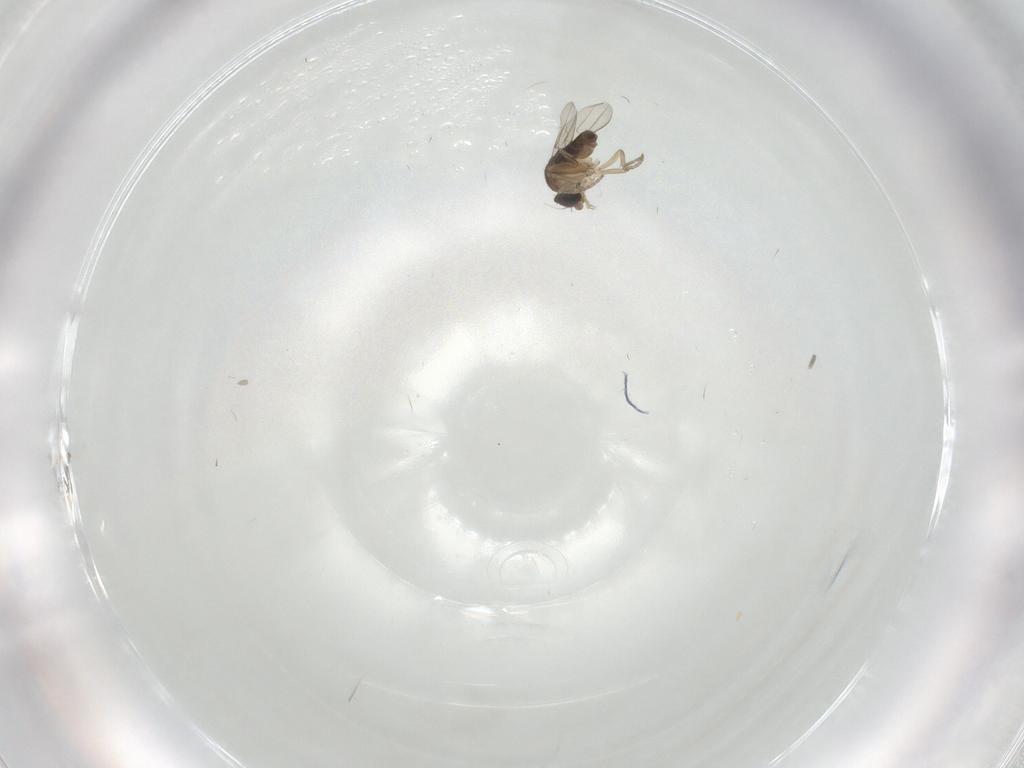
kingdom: Animalia
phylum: Arthropoda
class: Insecta
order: Diptera
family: Phoridae
